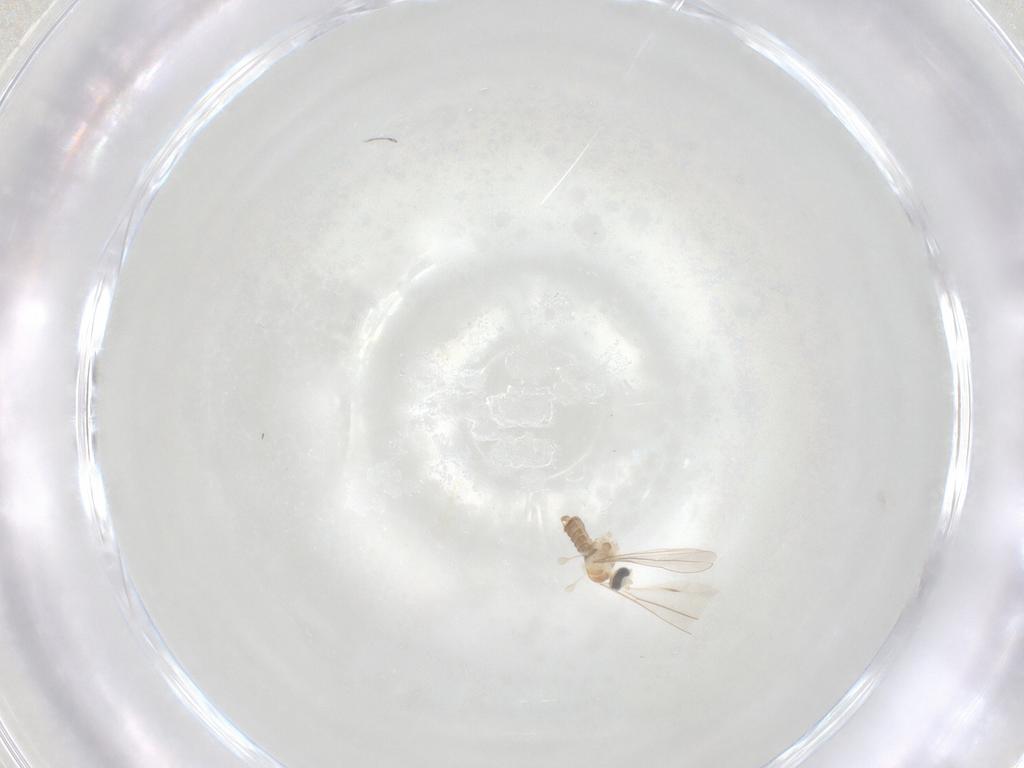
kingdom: Animalia
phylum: Arthropoda
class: Insecta
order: Diptera
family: Cecidomyiidae
